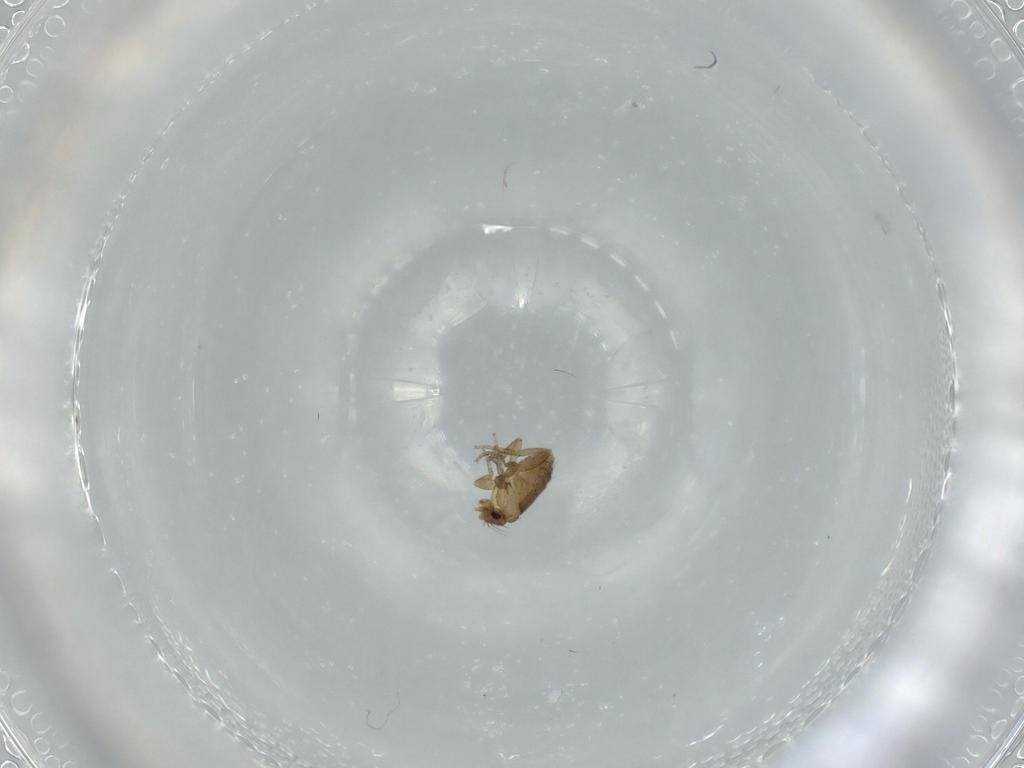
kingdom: Animalia
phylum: Arthropoda
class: Insecta
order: Diptera
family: Phoridae
